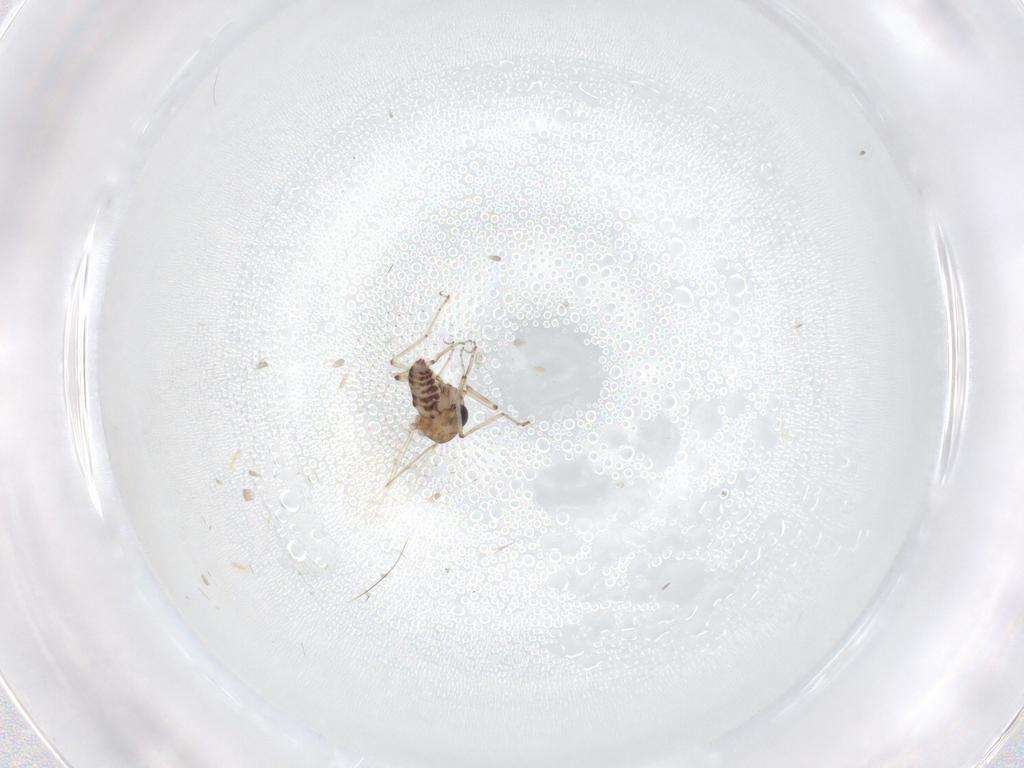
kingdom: Animalia
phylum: Arthropoda
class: Insecta
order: Diptera
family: Ceratopogonidae
